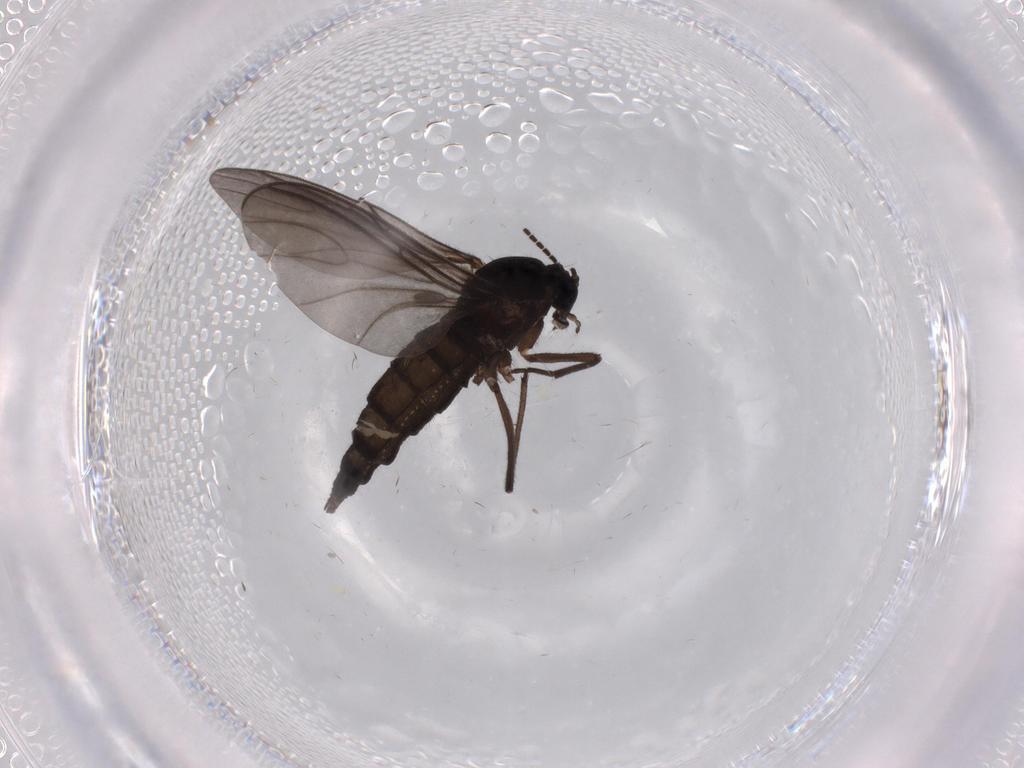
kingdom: Animalia
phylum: Arthropoda
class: Insecta
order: Diptera
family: Sciaridae
